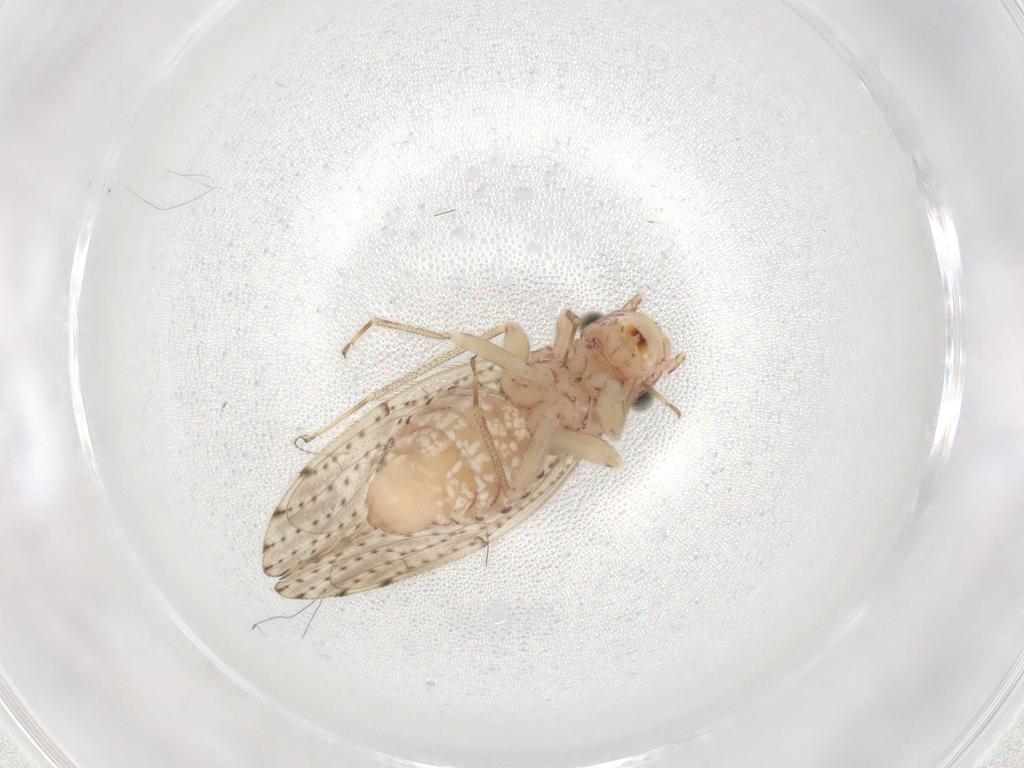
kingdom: Animalia
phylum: Arthropoda
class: Insecta
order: Psocodea
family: Philotarsidae
